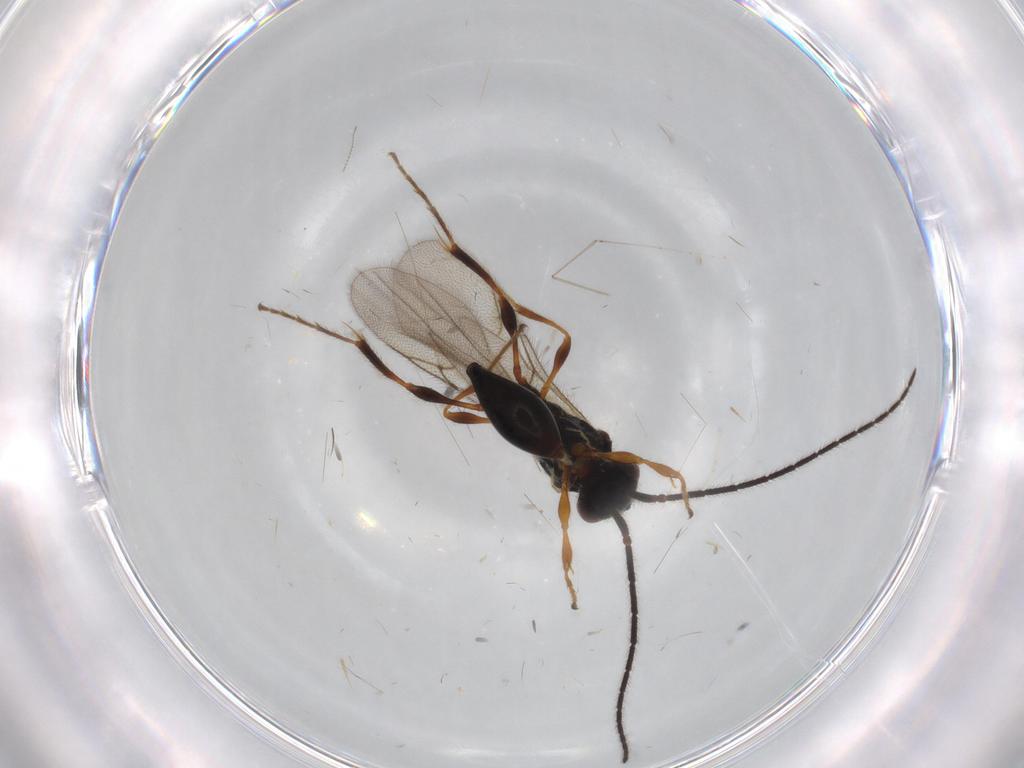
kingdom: Animalia
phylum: Arthropoda
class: Insecta
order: Hymenoptera
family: Diapriidae
